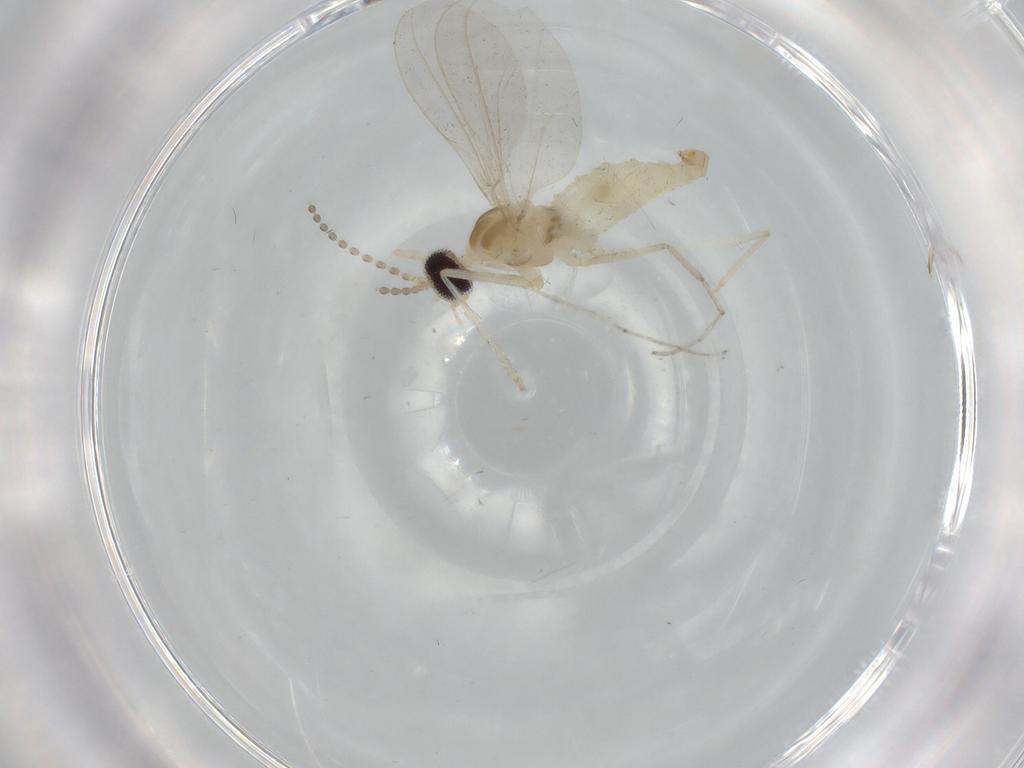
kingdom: Animalia
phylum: Arthropoda
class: Insecta
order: Diptera
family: Cecidomyiidae
